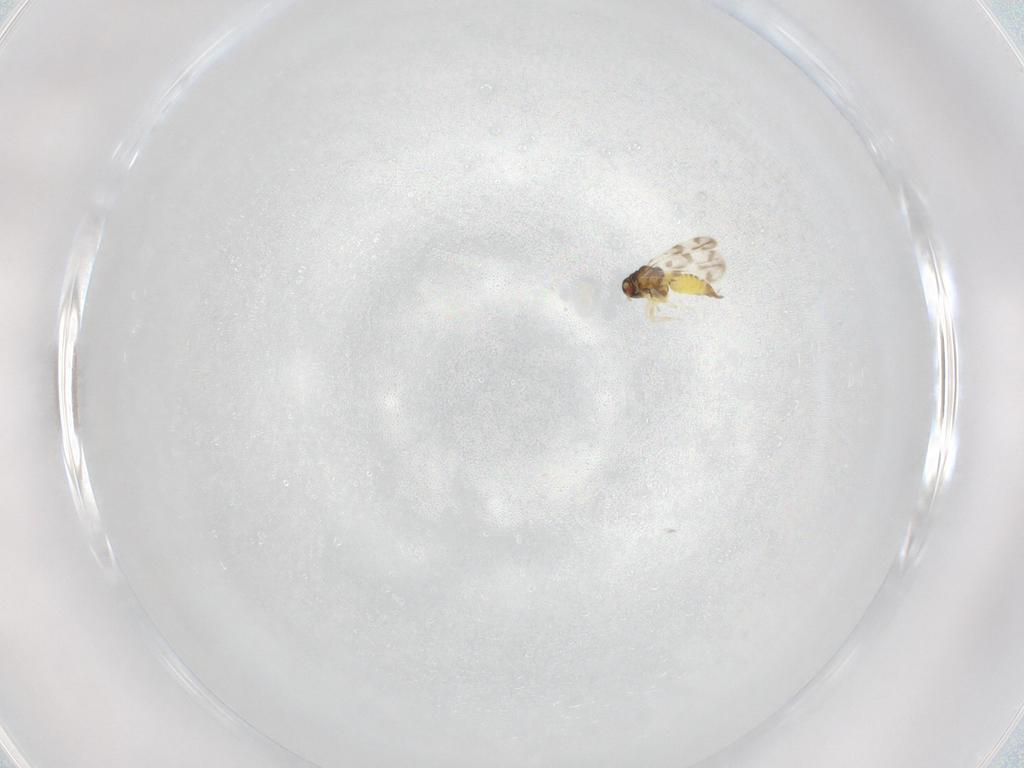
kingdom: Animalia
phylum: Arthropoda
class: Insecta
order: Hemiptera
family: Aleyrodidae
